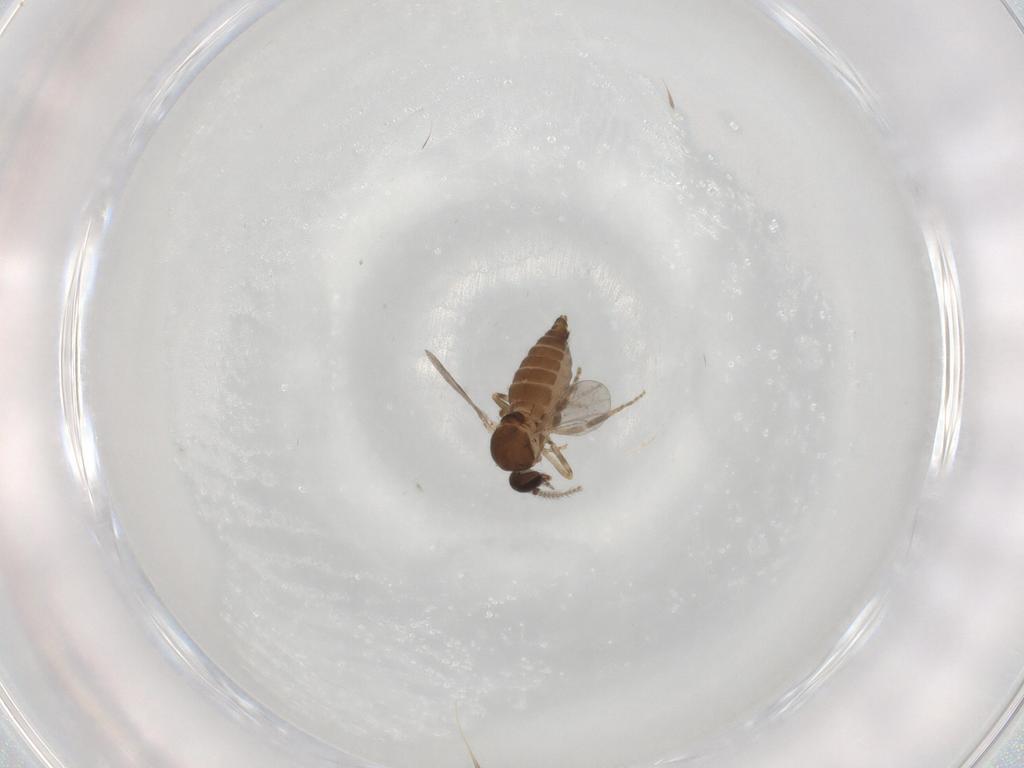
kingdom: Animalia
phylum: Arthropoda
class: Insecta
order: Diptera
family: Ceratopogonidae
